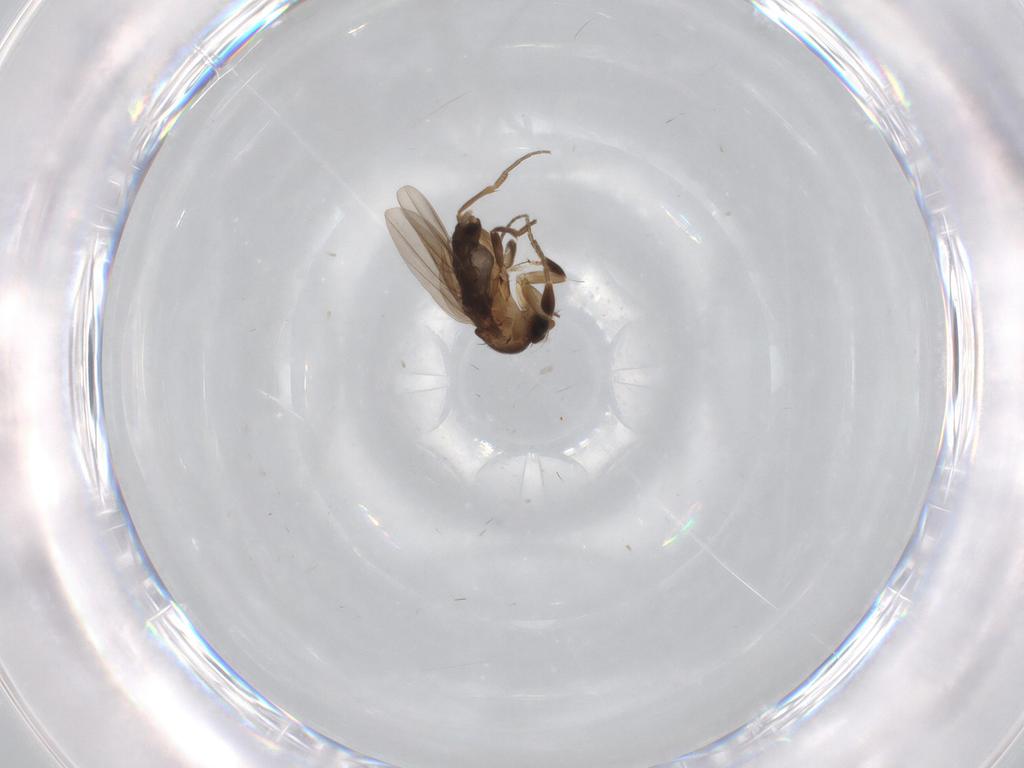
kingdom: Animalia
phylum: Arthropoda
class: Insecta
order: Diptera
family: Phoridae
